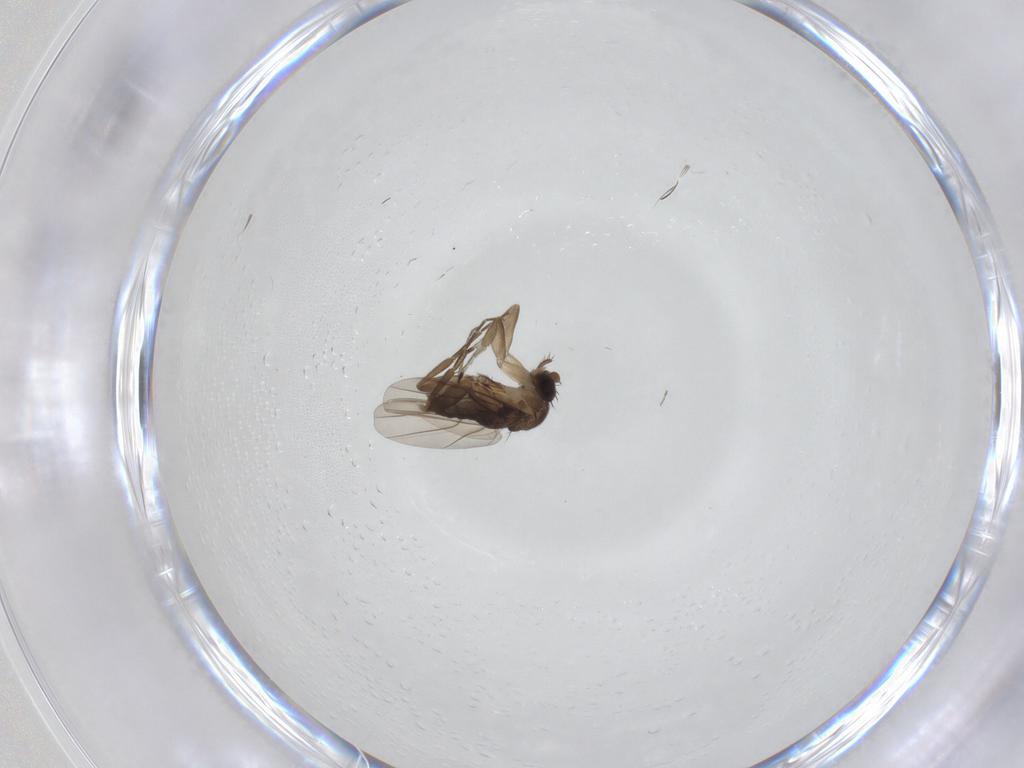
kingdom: Animalia
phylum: Arthropoda
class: Insecta
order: Diptera
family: Phoridae
